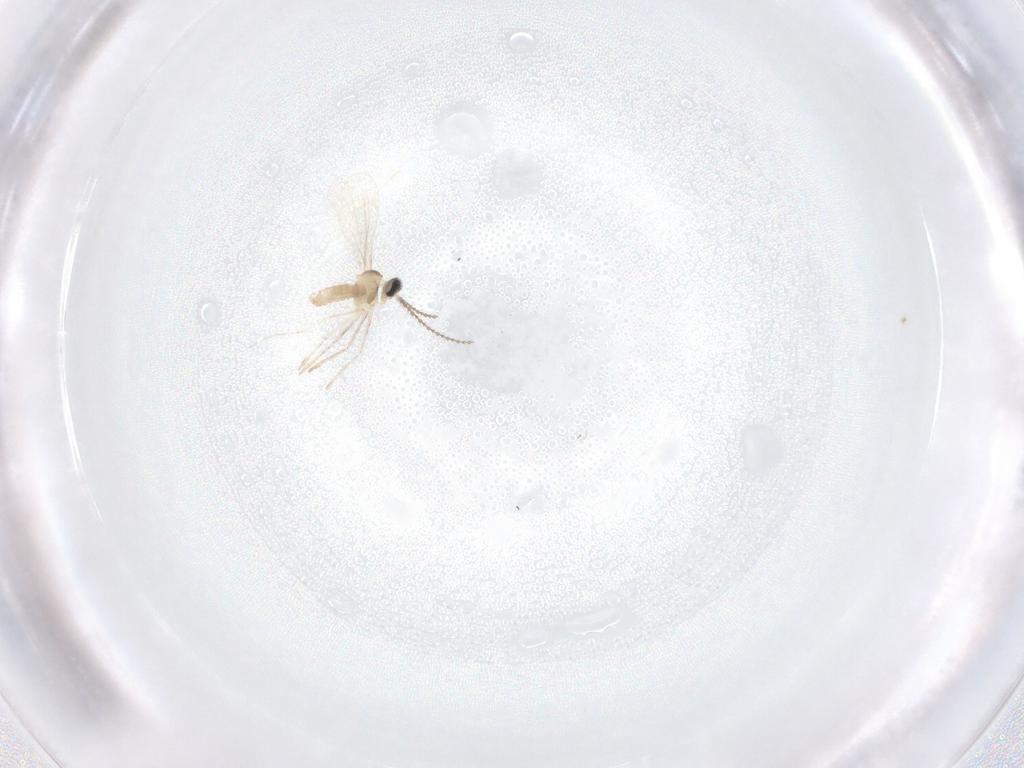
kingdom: Animalia
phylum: Arthropoda
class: Insecta
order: Diptera
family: Cecidomyiidae
